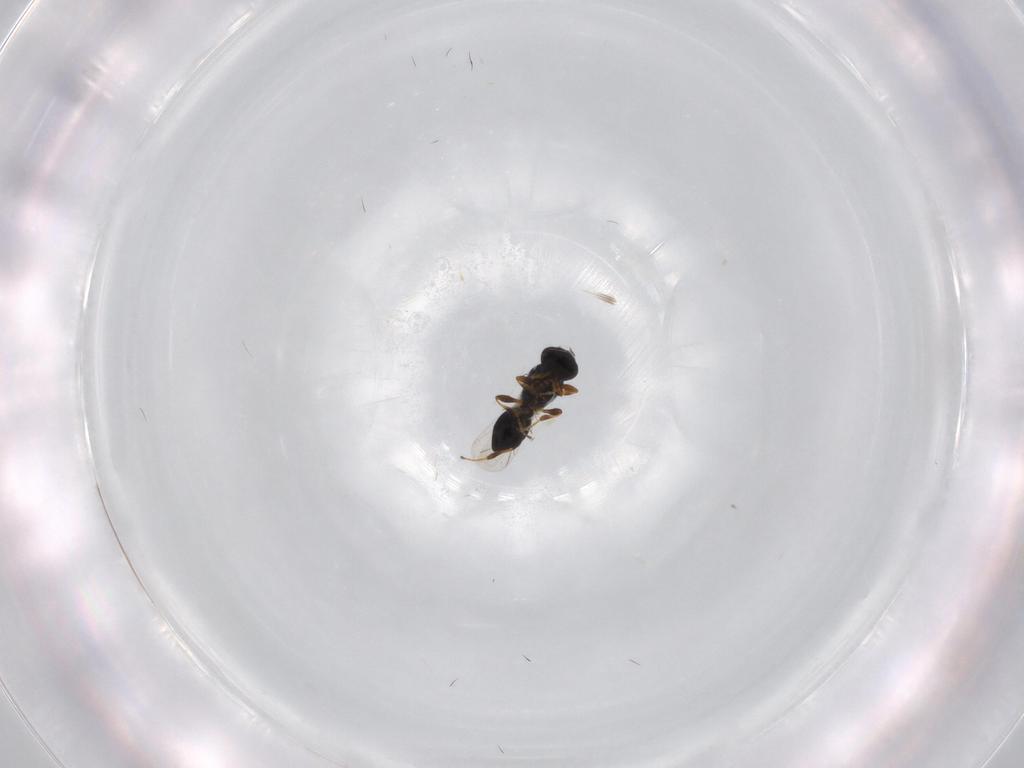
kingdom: Animalia
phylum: Arthropoda
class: Insecta
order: Hymenoptera
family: Platygastridae
